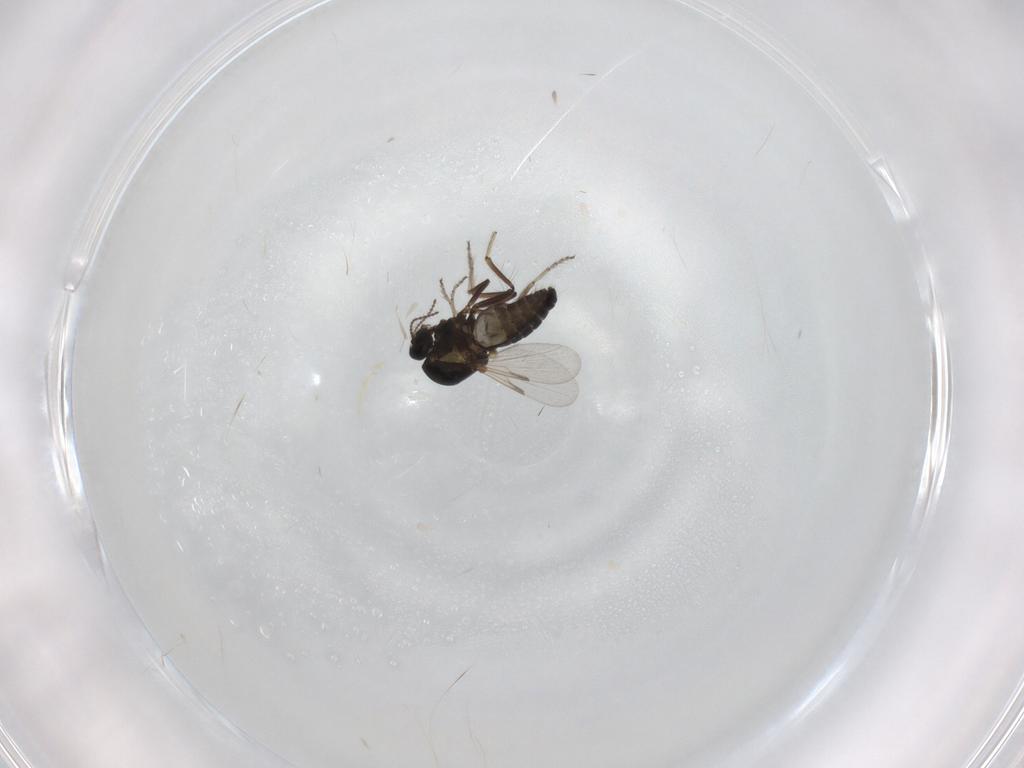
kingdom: Animalia
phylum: Arthropoda
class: Insecta
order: Diptera
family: Ceratopogonidae
